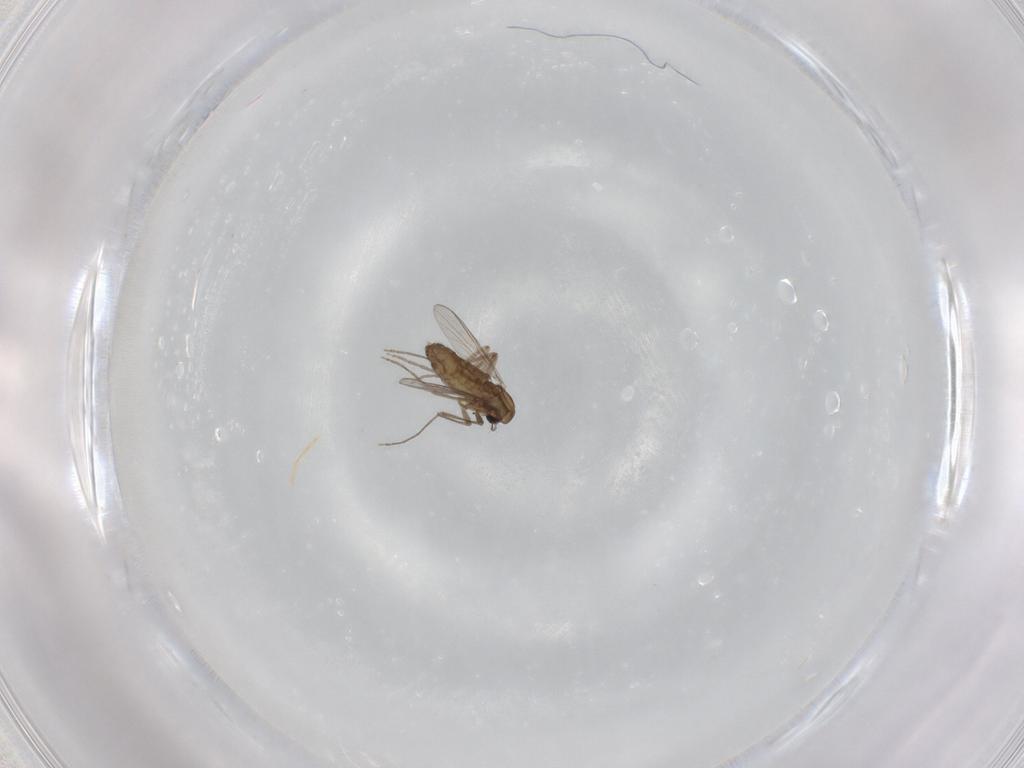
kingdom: Animalia
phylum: Arthropoda
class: Insecta
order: Diptera
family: Chironomidae
